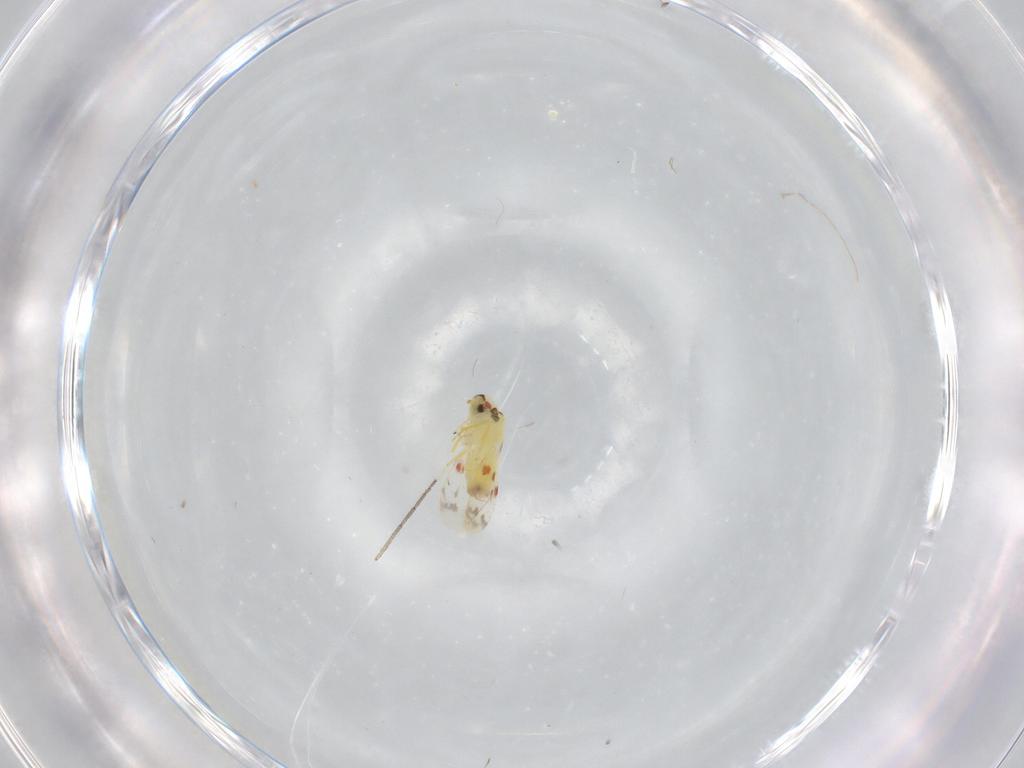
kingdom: Animalia
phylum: Arthropoda
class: Insecta
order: Hemiptera
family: Aleyrodidae
